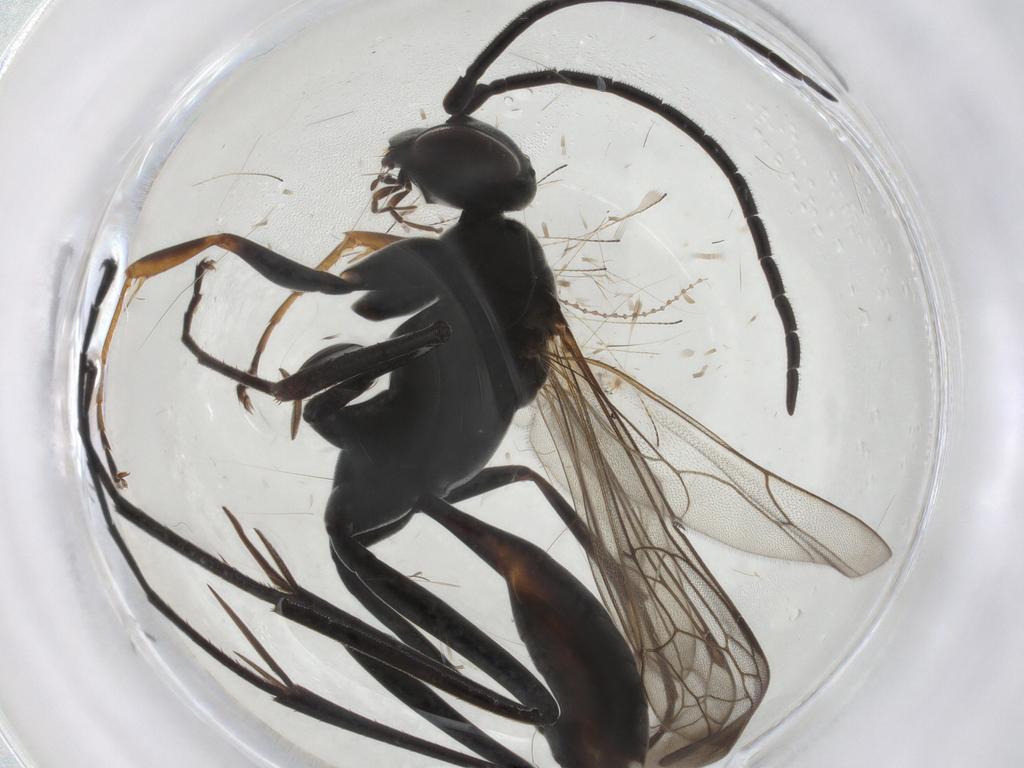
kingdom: Animalia
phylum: Arthropoda
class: Insecta
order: Hymenoptera
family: Pompilidae
